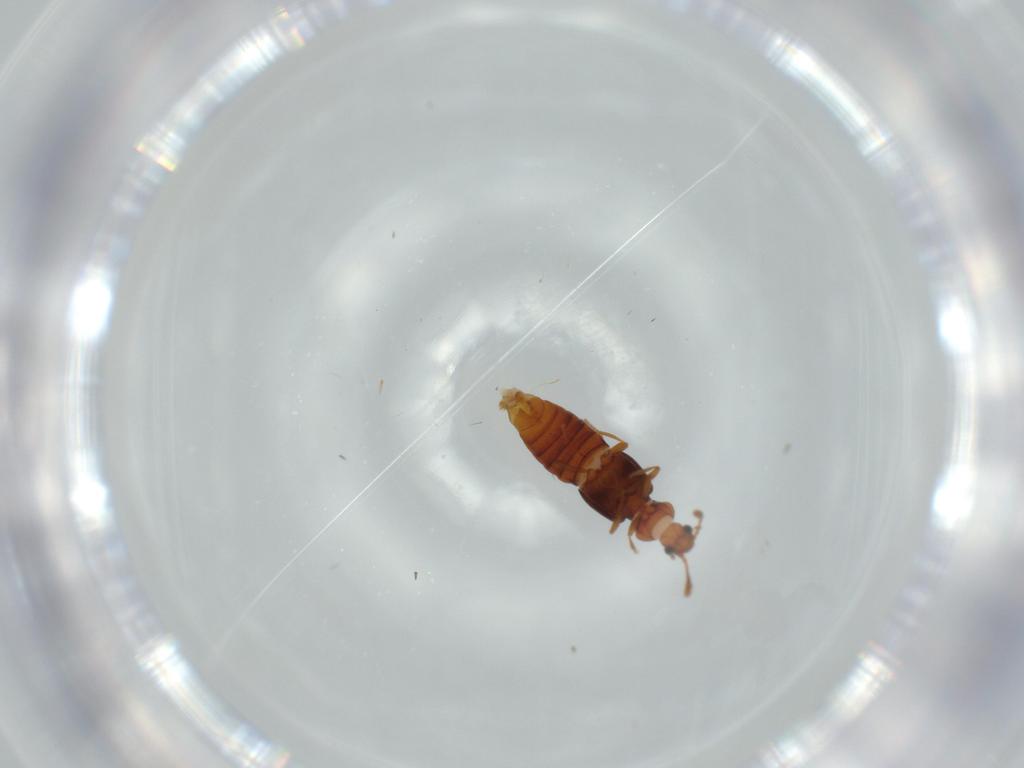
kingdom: Animalia
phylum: Arthropoda
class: Insecta
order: Coleoptera
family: Staphylinidae
